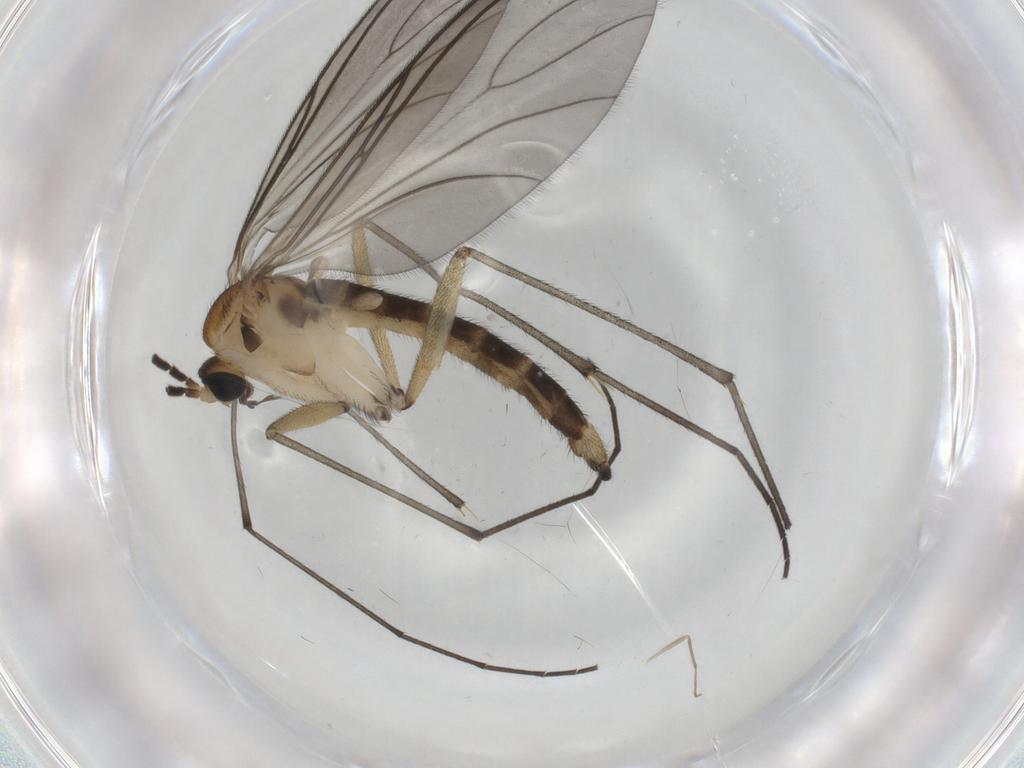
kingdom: Animalia
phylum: Arthropoda
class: Insecta
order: Diptera
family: Sciaridae
